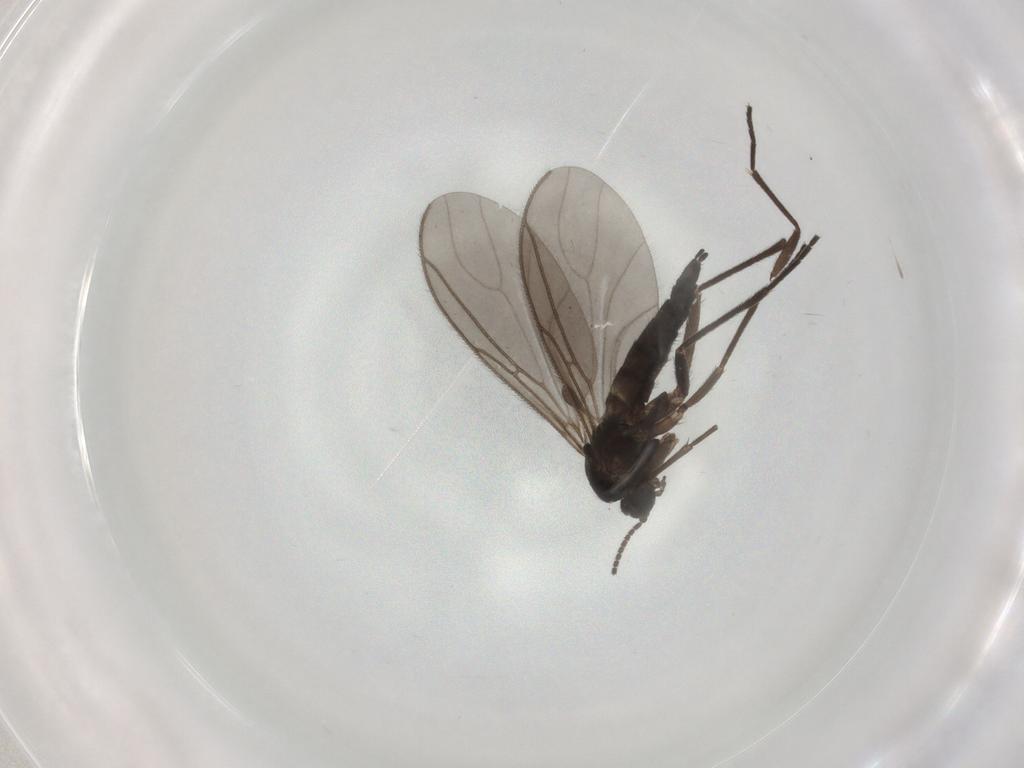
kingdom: Animalia
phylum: Arthropoda
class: Insecta
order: Diptera
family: Sciaridae
